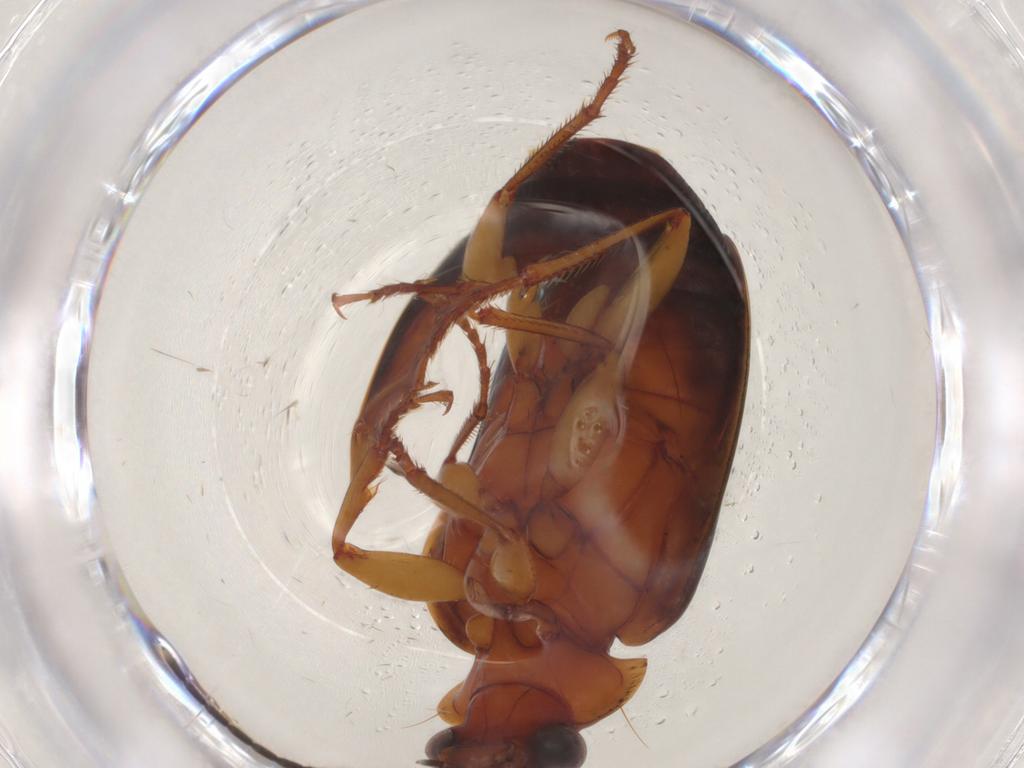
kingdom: Animalia
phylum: Arthropoda
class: Insecta
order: Coleoptera
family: Carabidae
